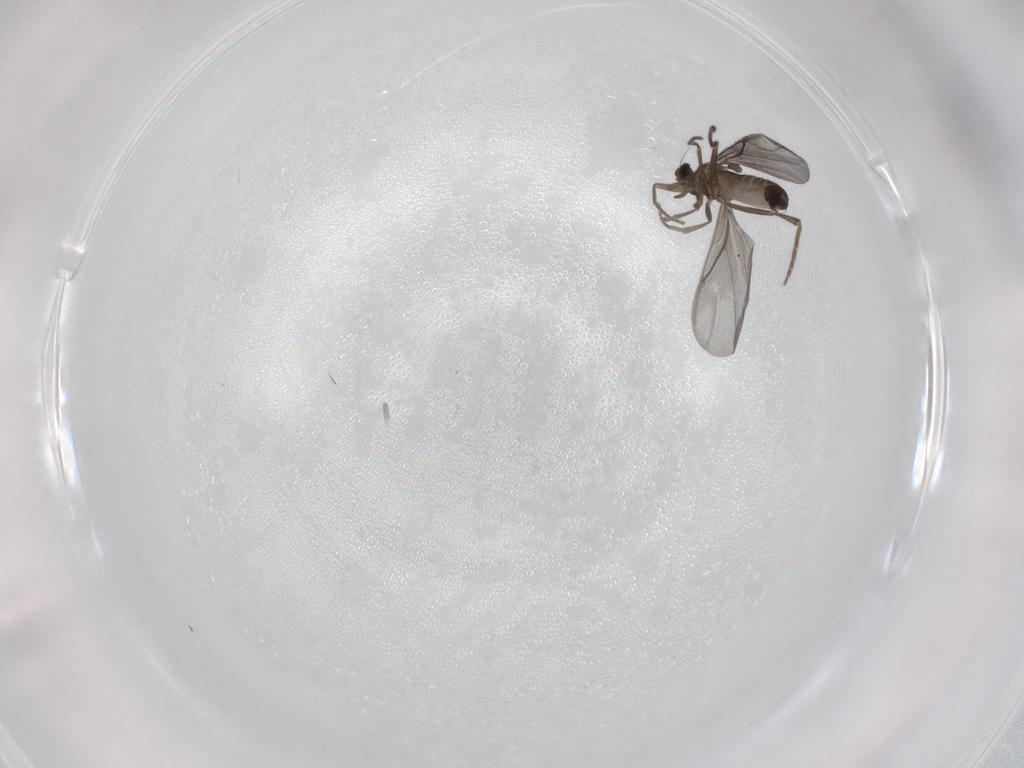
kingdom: Animalia
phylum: Arthropoda
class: Insecta
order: Diptera
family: Phoridae
